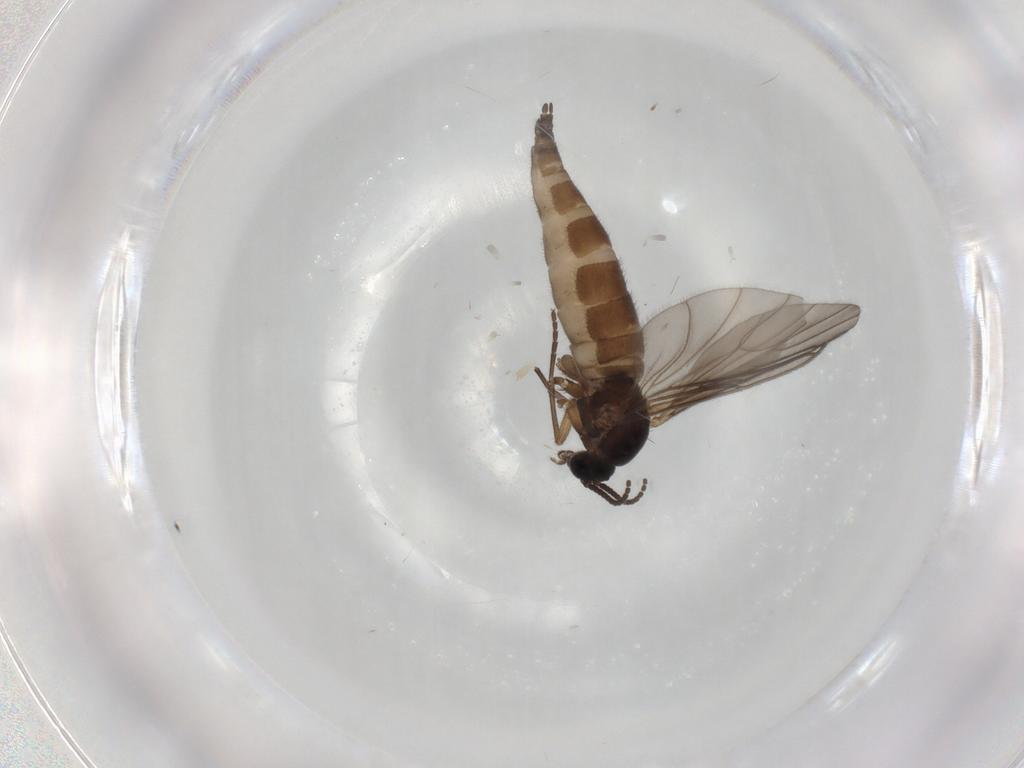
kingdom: Animalia
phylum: Arthropoda
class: Insecta
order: Diptera
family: Sciaridae
